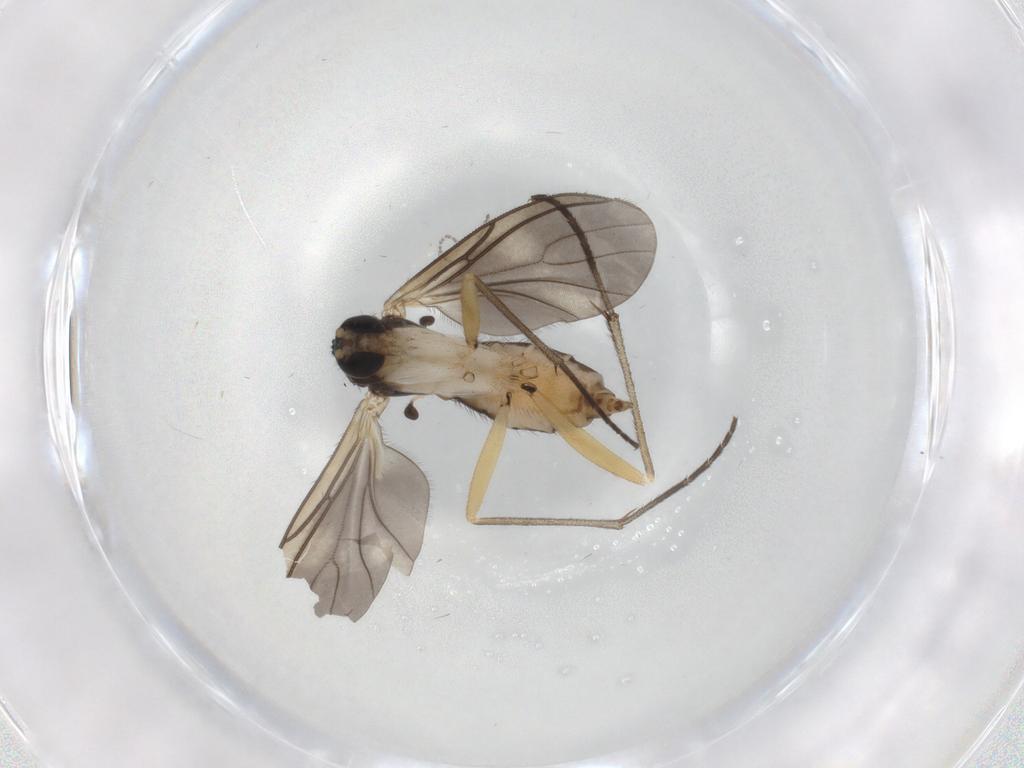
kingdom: Animalia
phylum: Arthropoda
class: Insecta
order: Diptera
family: Sciaridae
